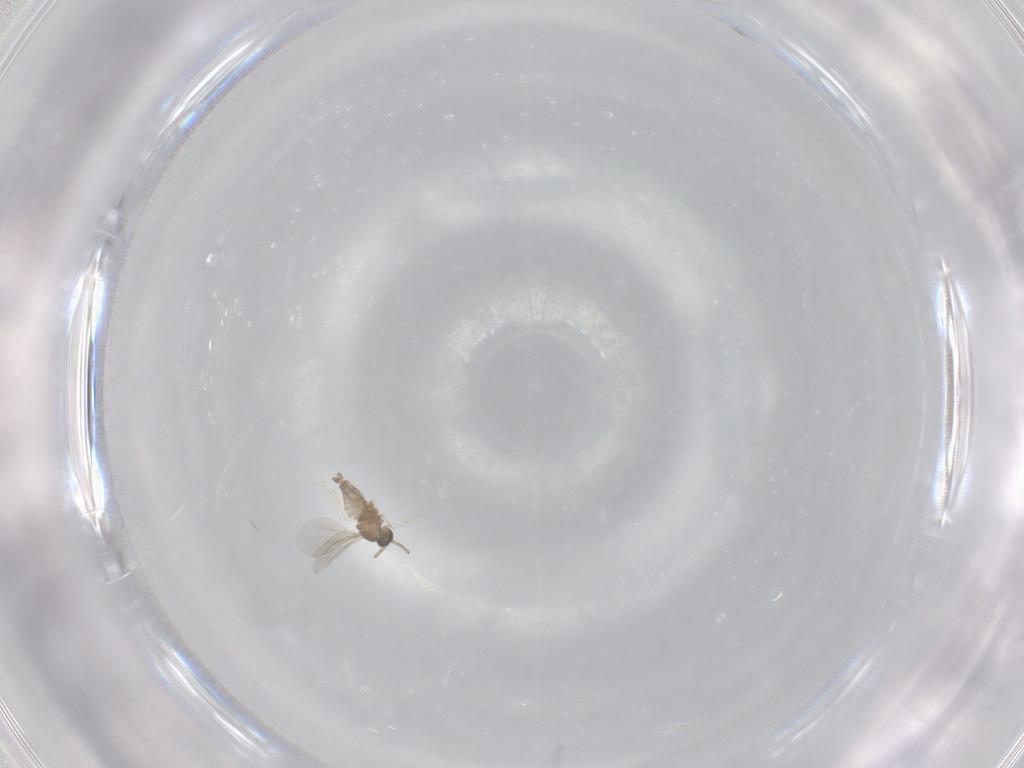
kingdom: Animalia
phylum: Arthropoda
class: Insecta
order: Diptera
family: Cecidomyiidae
